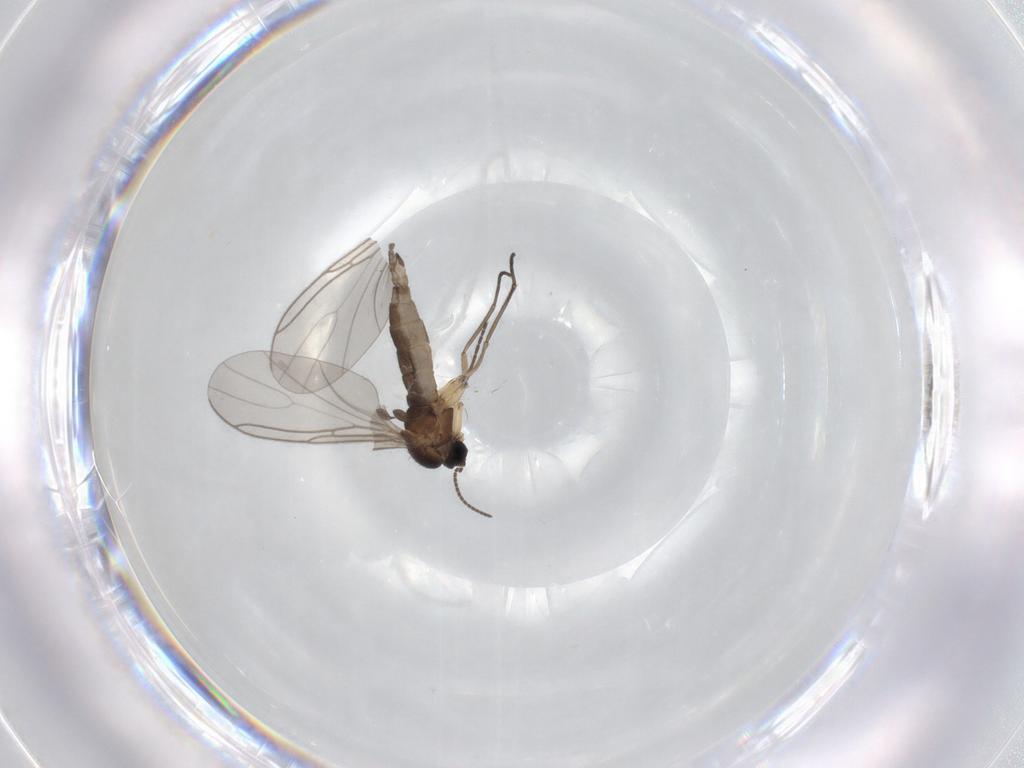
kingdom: Animalia
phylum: Arthropoda
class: Insecta
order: Diptera
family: Sciaridae
